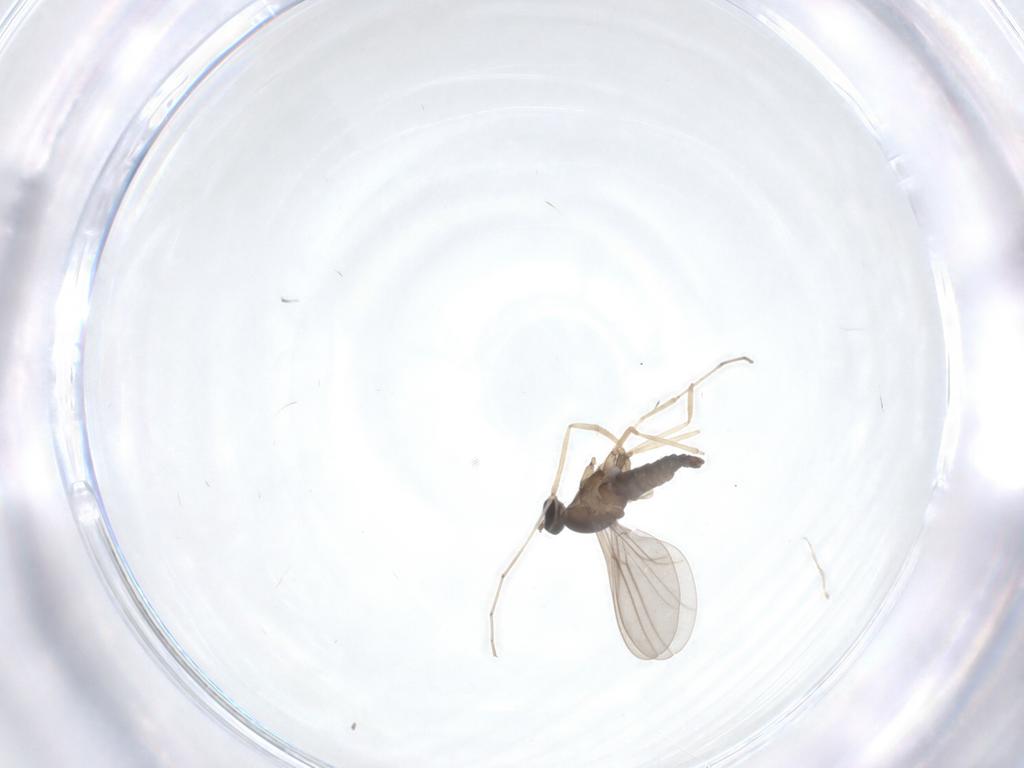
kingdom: Animalia
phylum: Arthropoda
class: Insecta
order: Diptera
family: Cecidomyiidae
